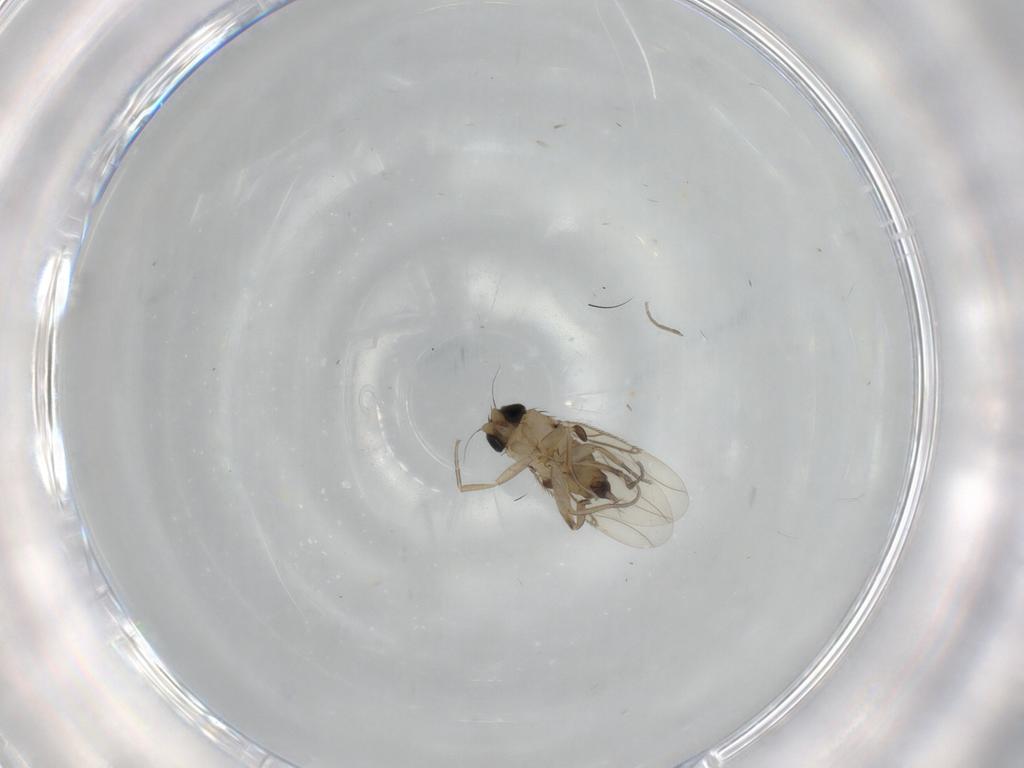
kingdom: Animalia
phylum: Arthropoda
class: Insecta
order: Diptera
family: Phoridae
